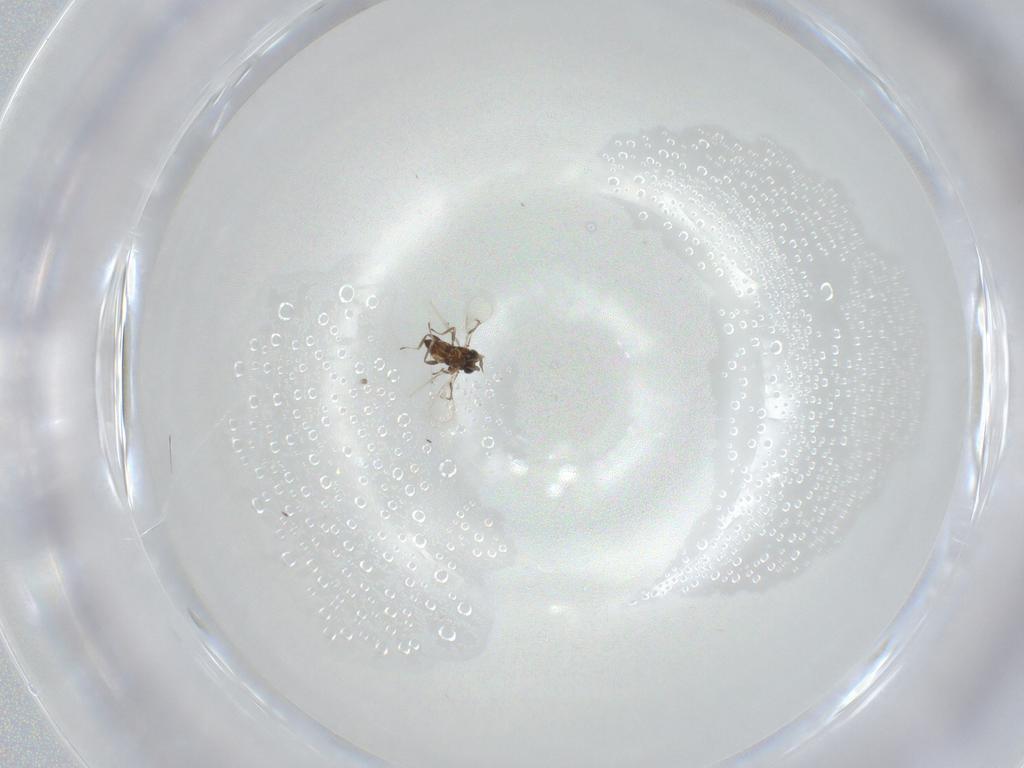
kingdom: Animalia
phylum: Arthropoda
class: Insecta
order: Hymenoptera
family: Trichogrammatidae
